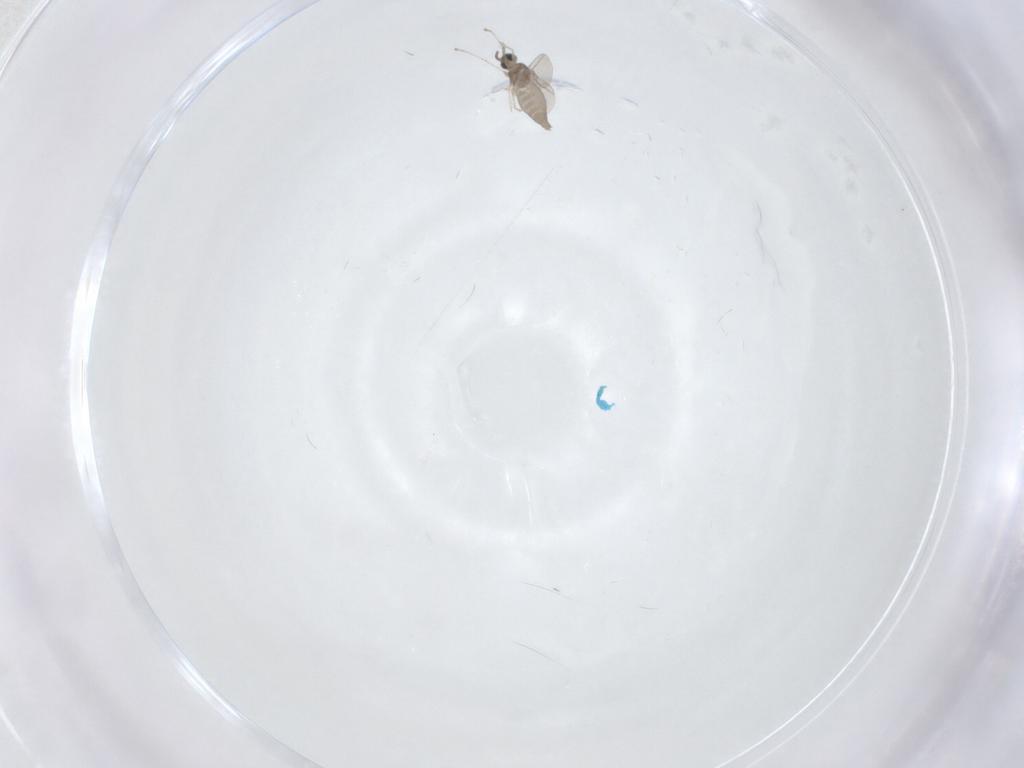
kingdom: Animalia
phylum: Arthropoda
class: Insecta
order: Diptera
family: Cecidomyiidae
